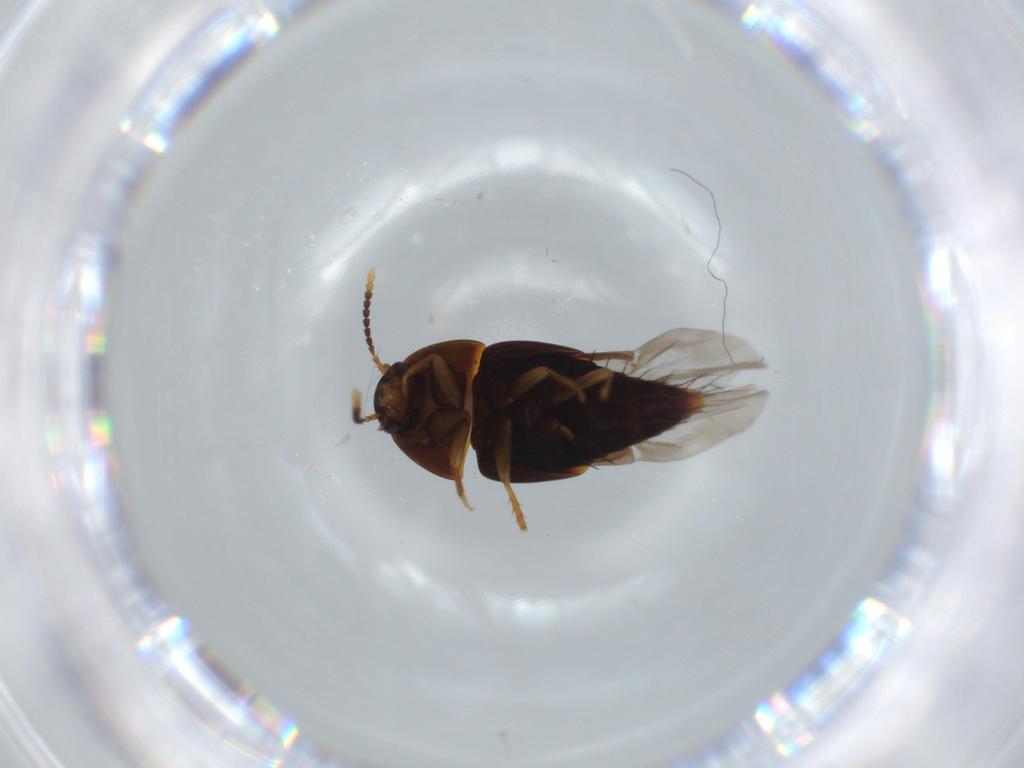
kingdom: Animalia
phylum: Arthropoda
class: Insecta
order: Coleoptera
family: Staphylinidae
